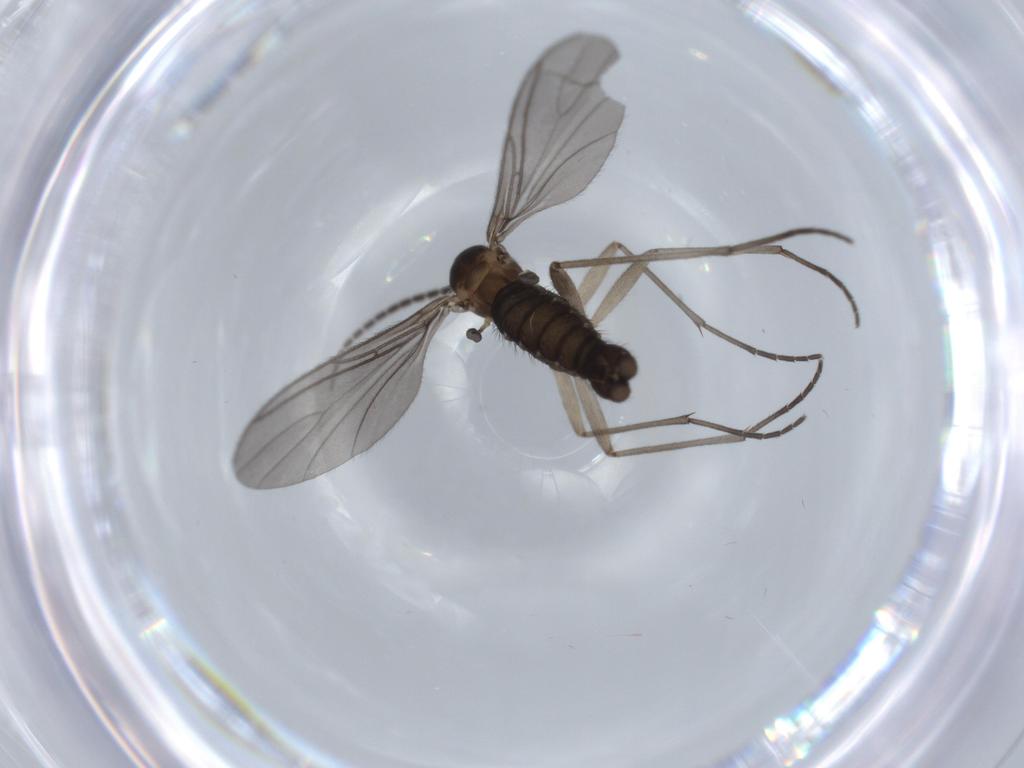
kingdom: Animalia
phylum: Arthropoda
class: Insecta
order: Diptera
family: Sciaridae
